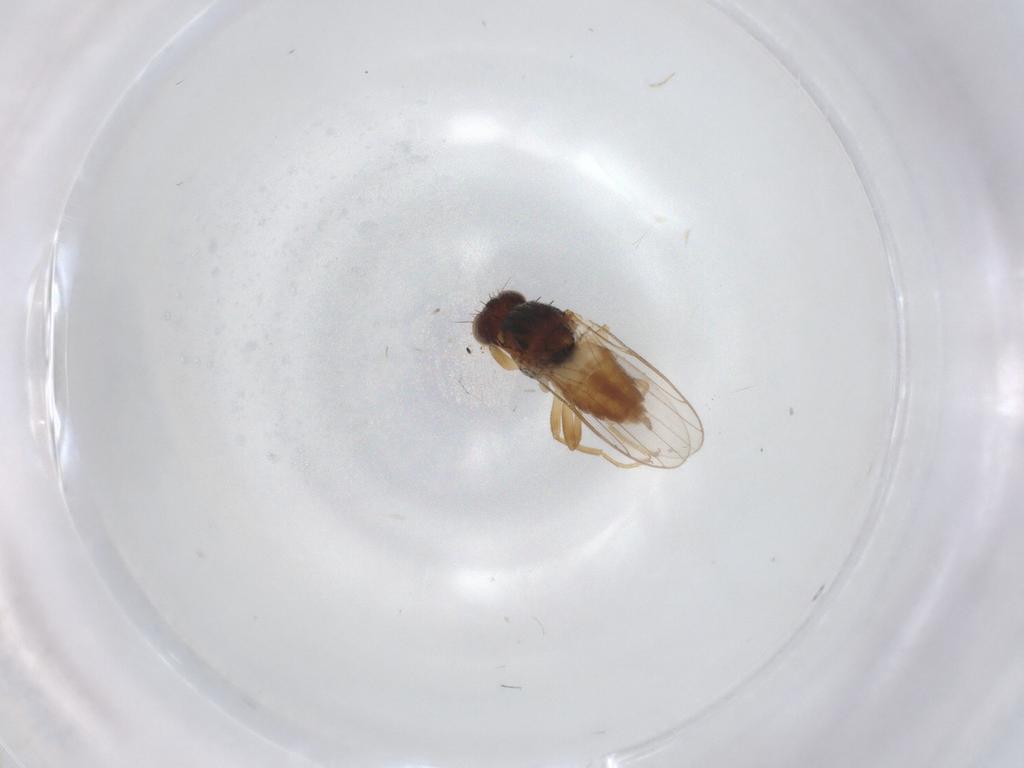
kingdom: Animalia
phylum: Arthropoda
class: Insecta
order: Diptera
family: Chloropidae
